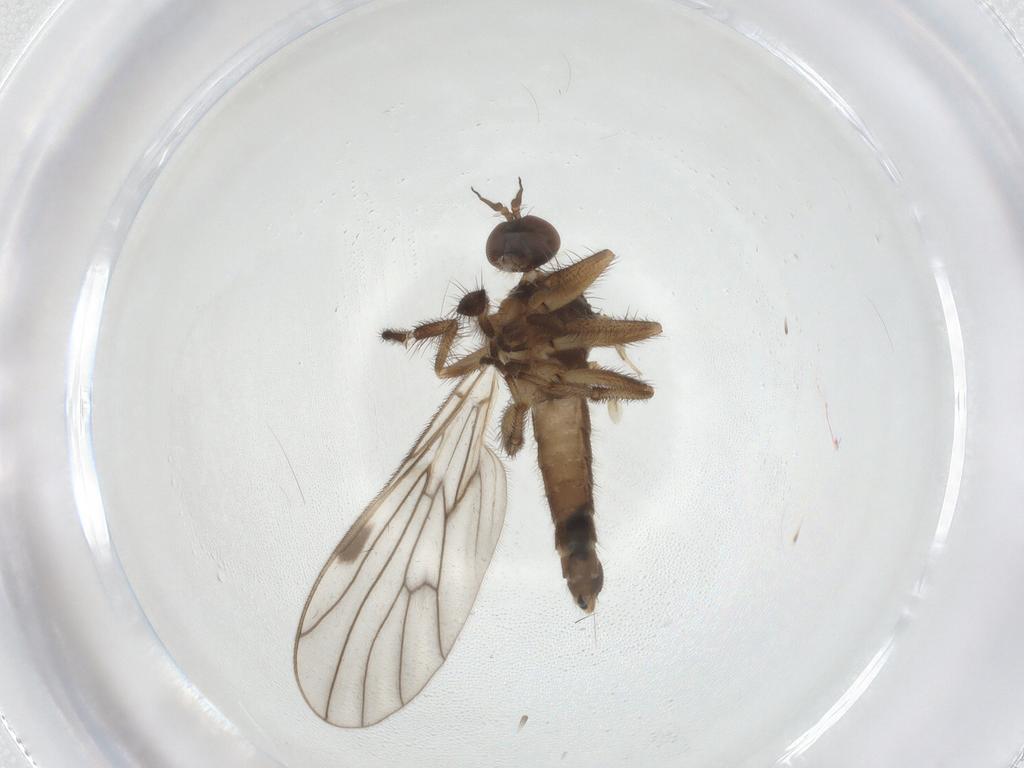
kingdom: Animalia
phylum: Arthropoda
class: Insecta
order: Diptera
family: Empididae
